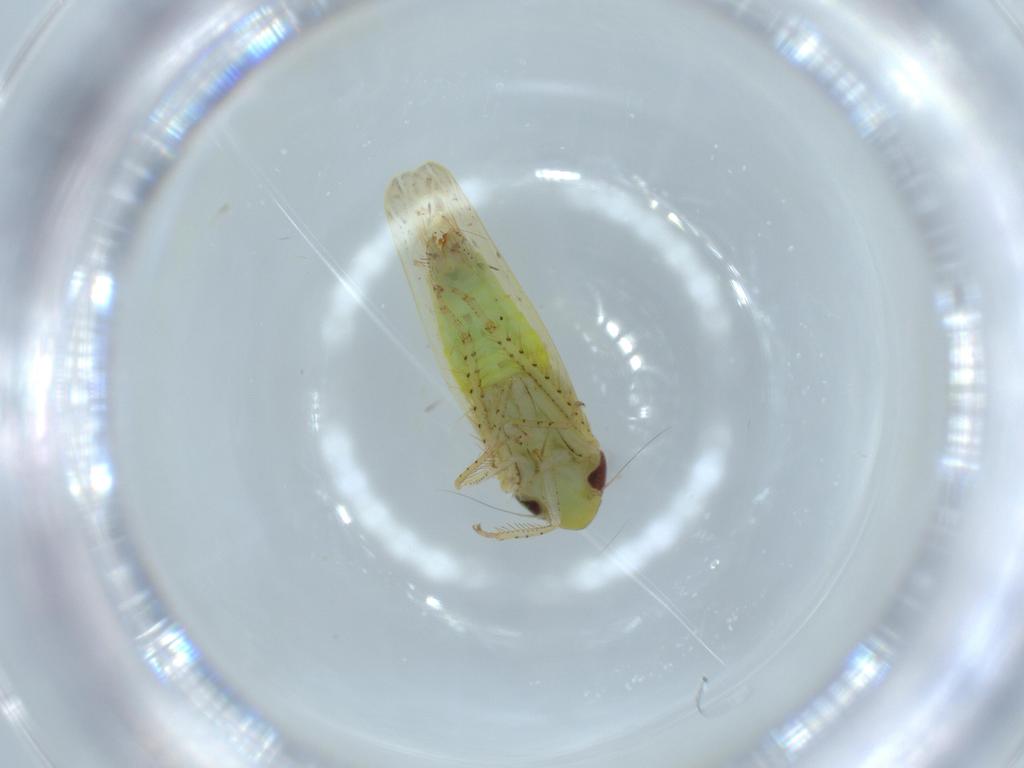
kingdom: Animalia
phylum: Arthropoda
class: Insecta
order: Hemiptera
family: Cicadellidae
